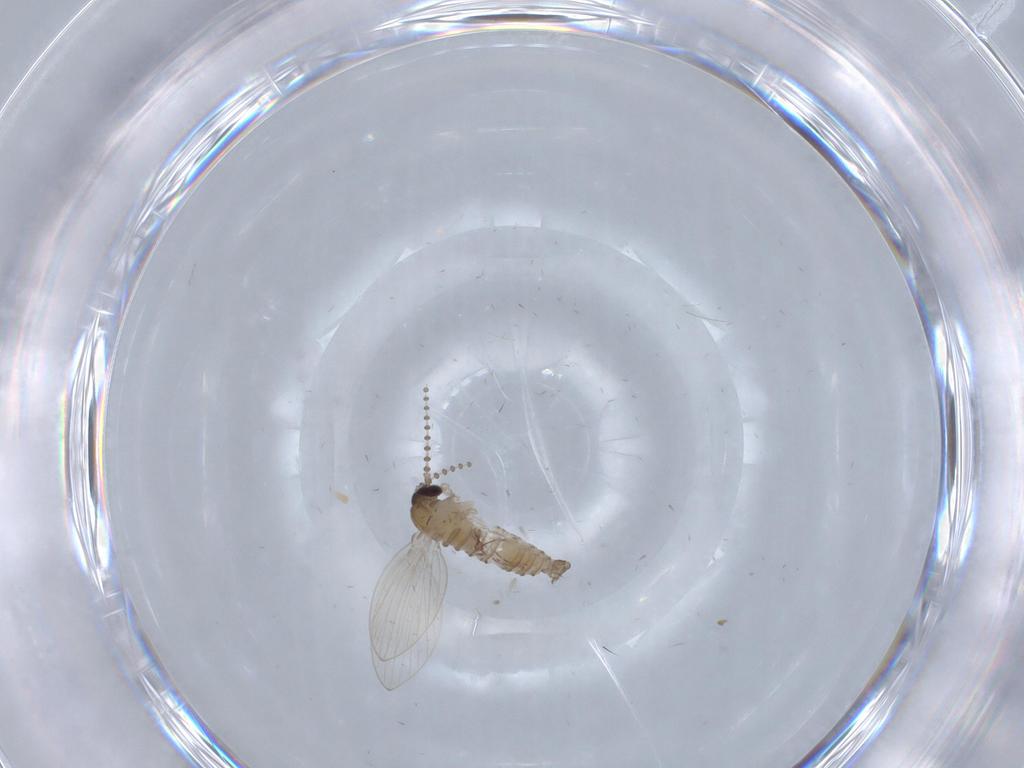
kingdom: Animalia
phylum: Arthropoda
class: Insecta
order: Diptera
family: Psychodidae
